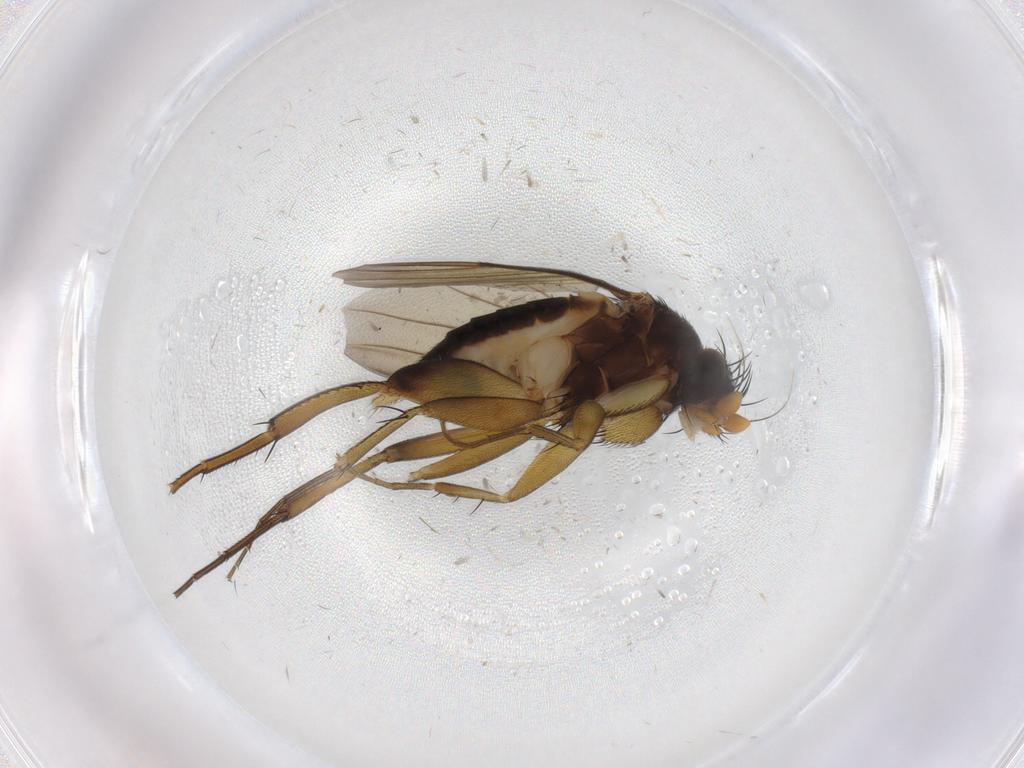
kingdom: Animalia
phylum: Arthropoda
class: Insecta
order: Diptera
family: Phoridae
